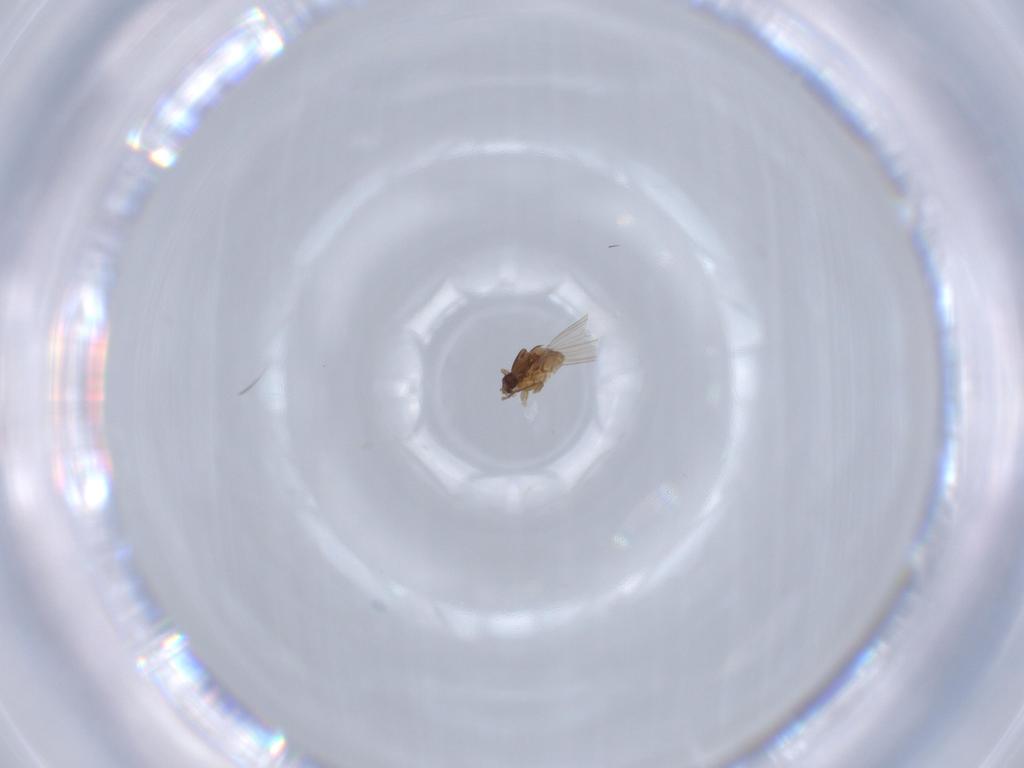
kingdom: Animalia
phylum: Arthropoda
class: Insecta
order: Diptera
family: Psychodidae
